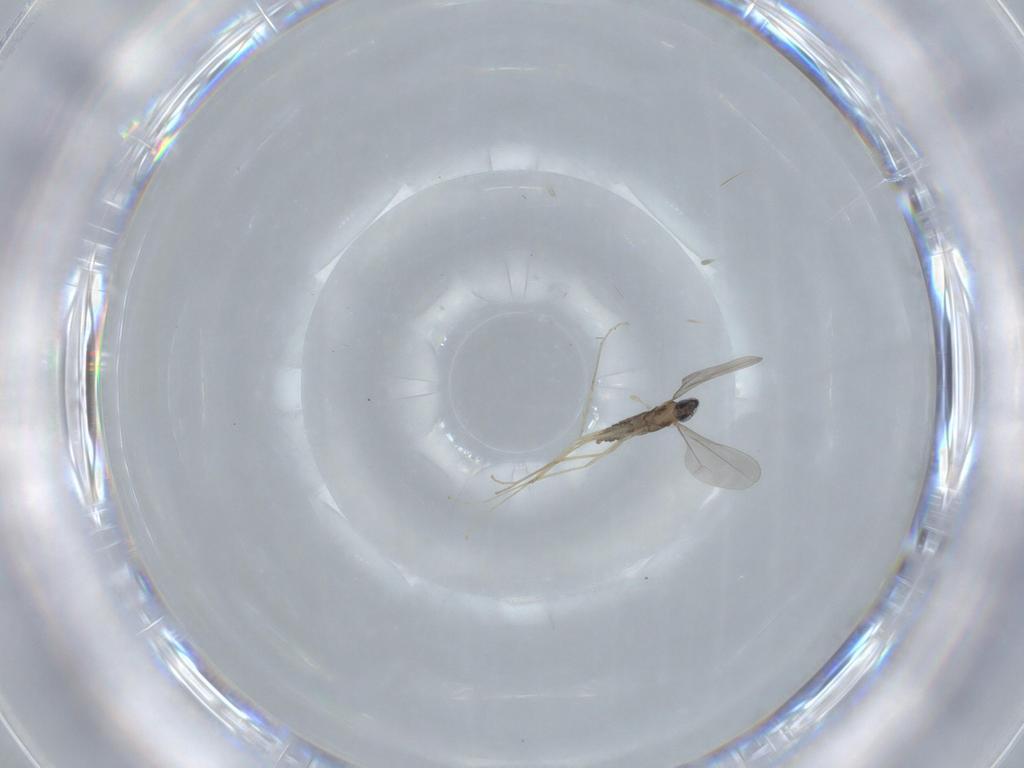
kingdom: Animalia
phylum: Arthropoda
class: Insecta
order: Diptera
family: Cecidomyiidae
